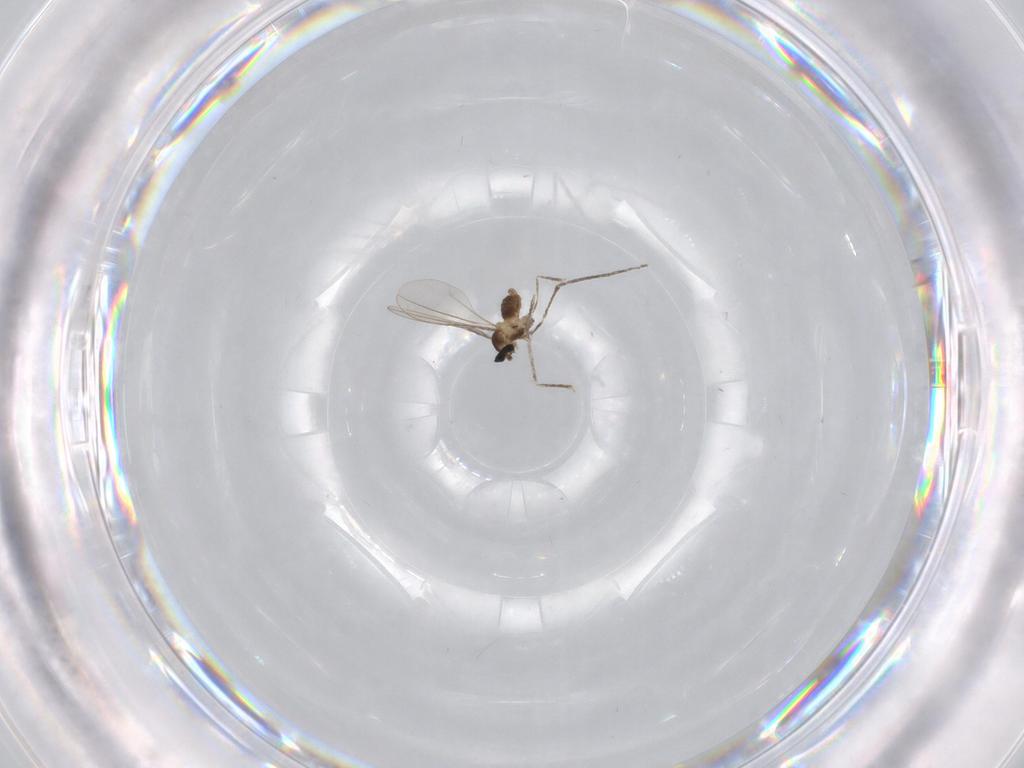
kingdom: Animalia
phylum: Arthropoda
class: Insecta
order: Diptera
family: Cecidomyiidae
